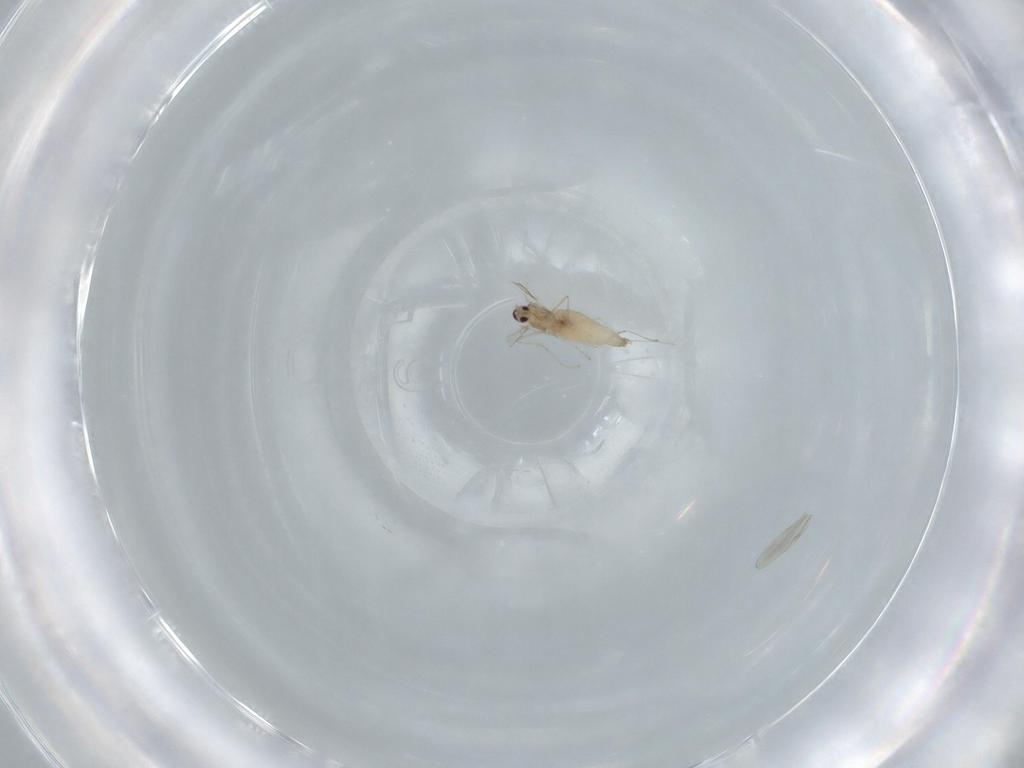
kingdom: Animalia
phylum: Arthropoda
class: Insecta
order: Diptera
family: Cecidomyiidae
